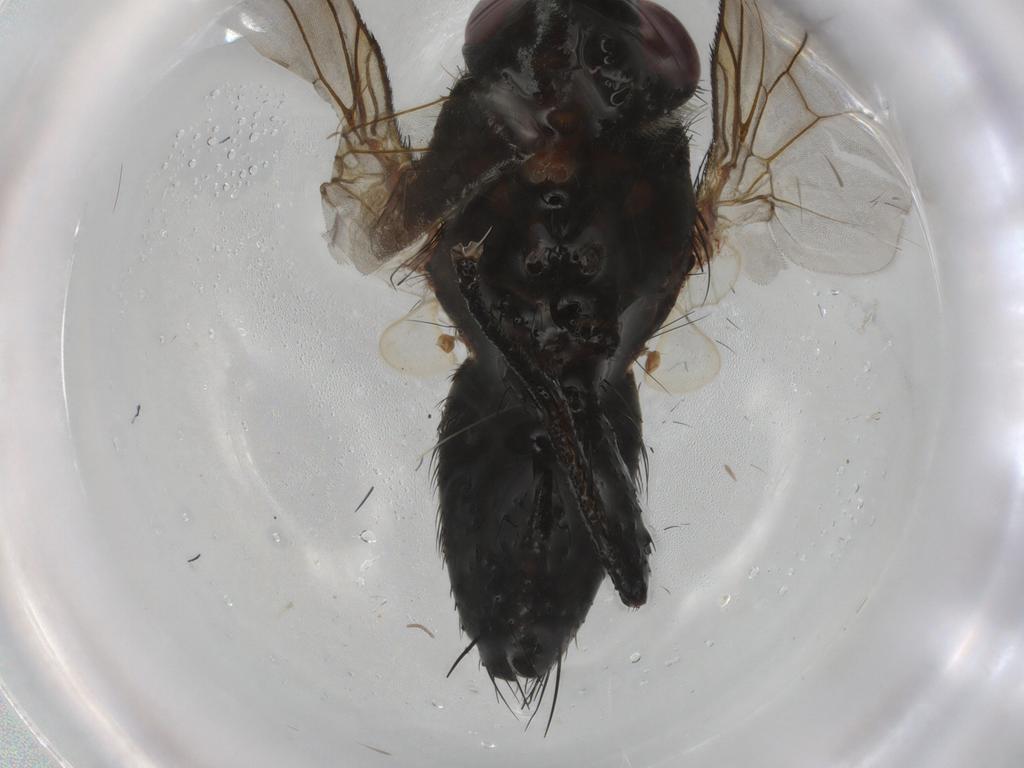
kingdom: Animalia
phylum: Arthropoda
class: Insecta
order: Diptera
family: Tachinidae
